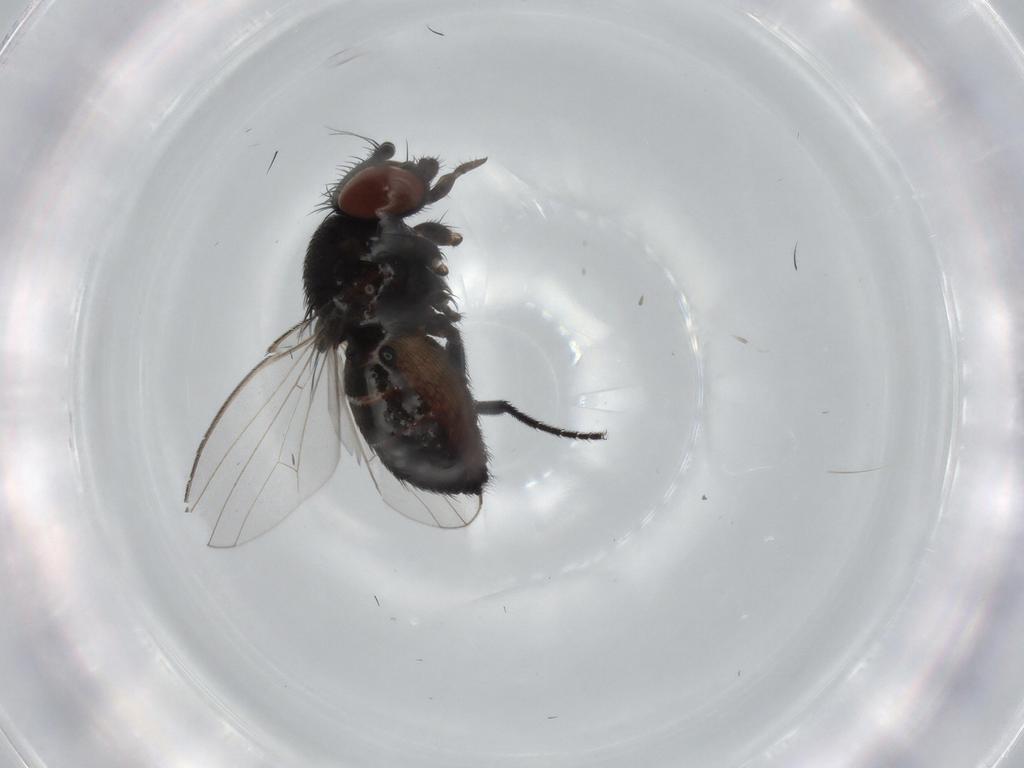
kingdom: Animalia
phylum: Arthropoda
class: Insecta
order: Diptera
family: Milichiidae
